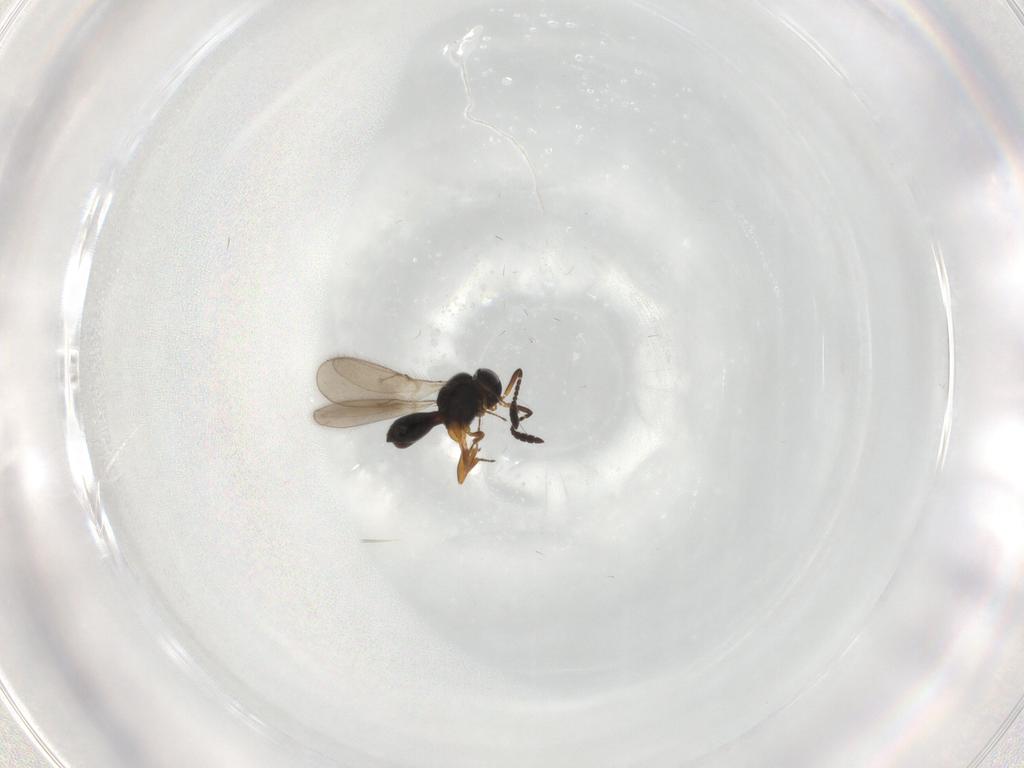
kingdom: Animalia
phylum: Arthropoda
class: Insecta
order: Hymenoptera
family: Scelionidae
